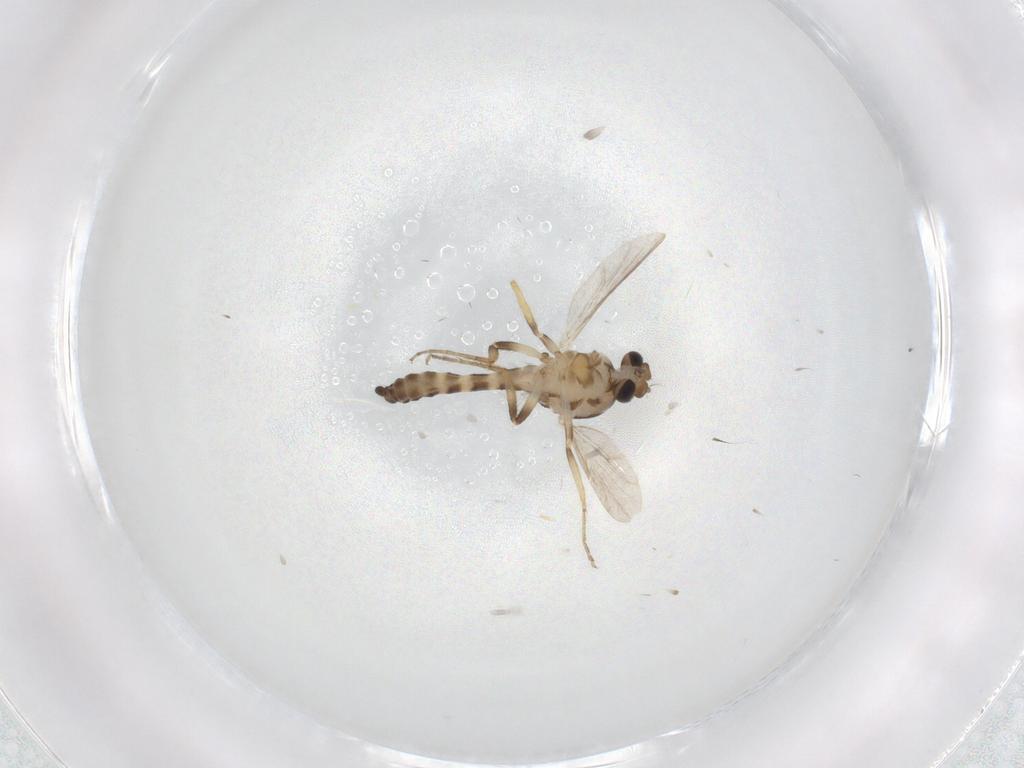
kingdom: Animalia
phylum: Arthropoda
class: Insecta
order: Diptera
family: Ceratopogonidae
